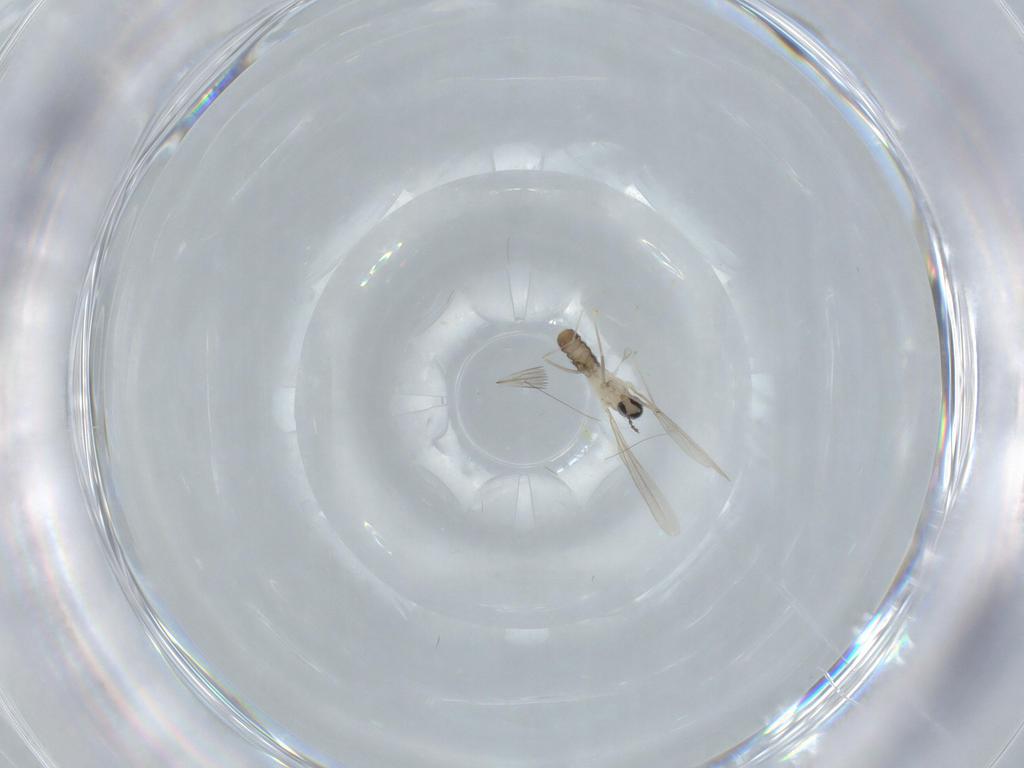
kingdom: Animalia
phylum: Arthropoda
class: Insecta
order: Diptera
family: Cecidomyiidae
